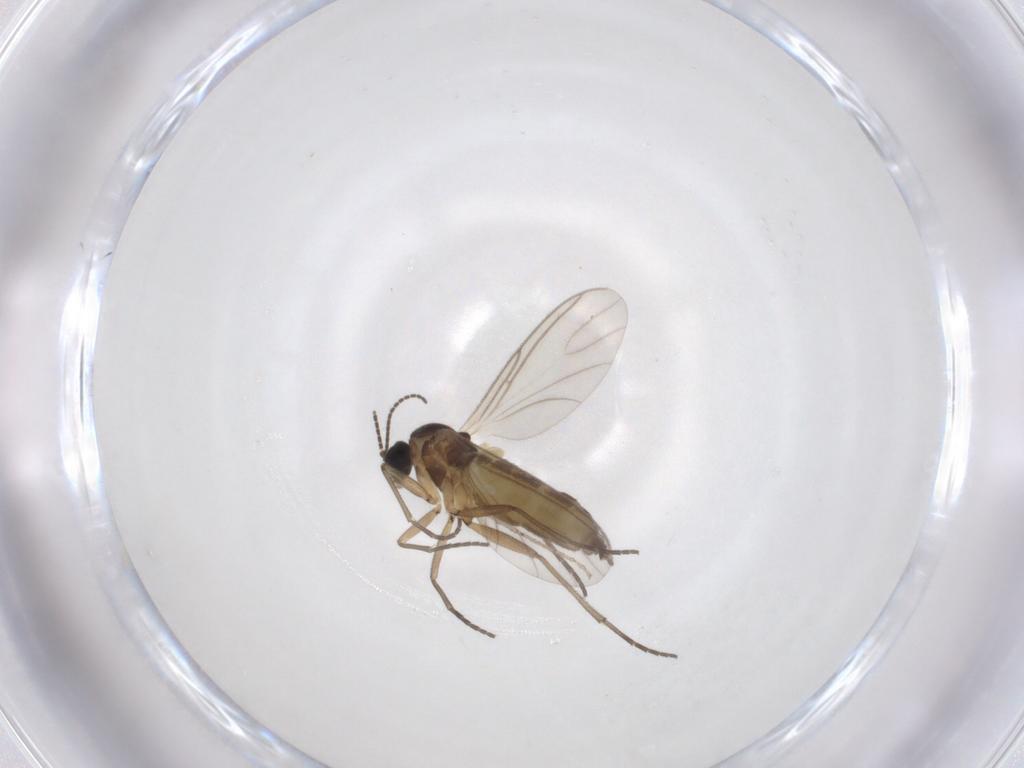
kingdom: Animalia
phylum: Arthropoda
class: Insecta
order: Diptera
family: Cecidomyiidae
